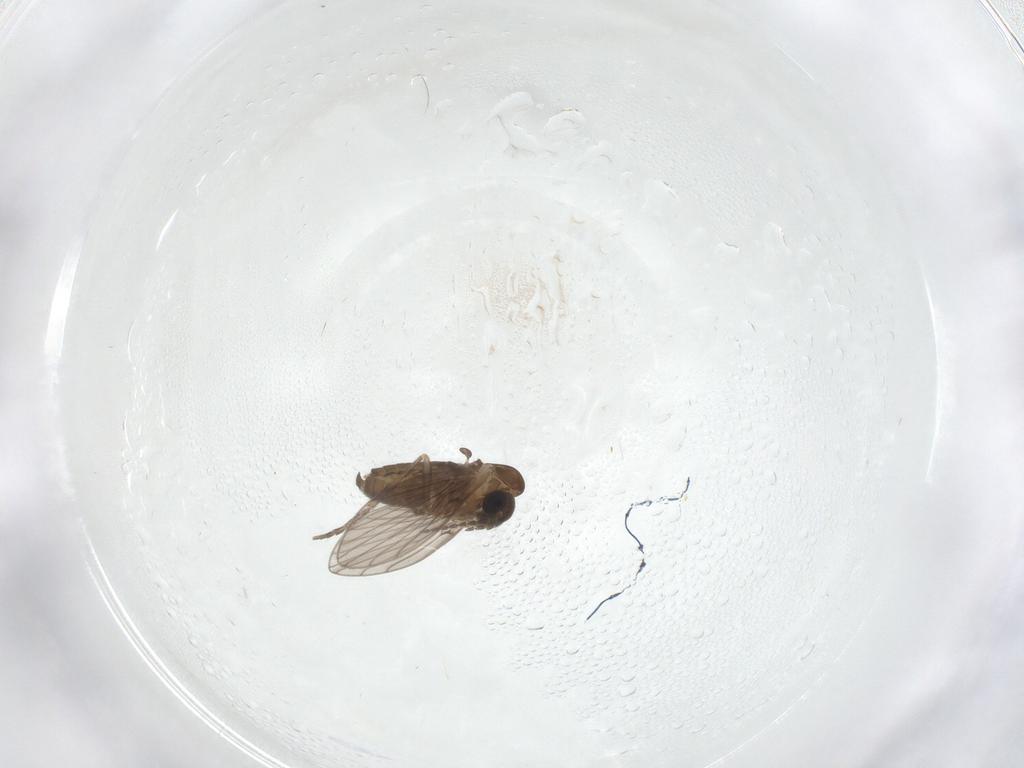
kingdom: Animalia
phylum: Arthropoda
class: Insecta
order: Diptera
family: Psychodidae
